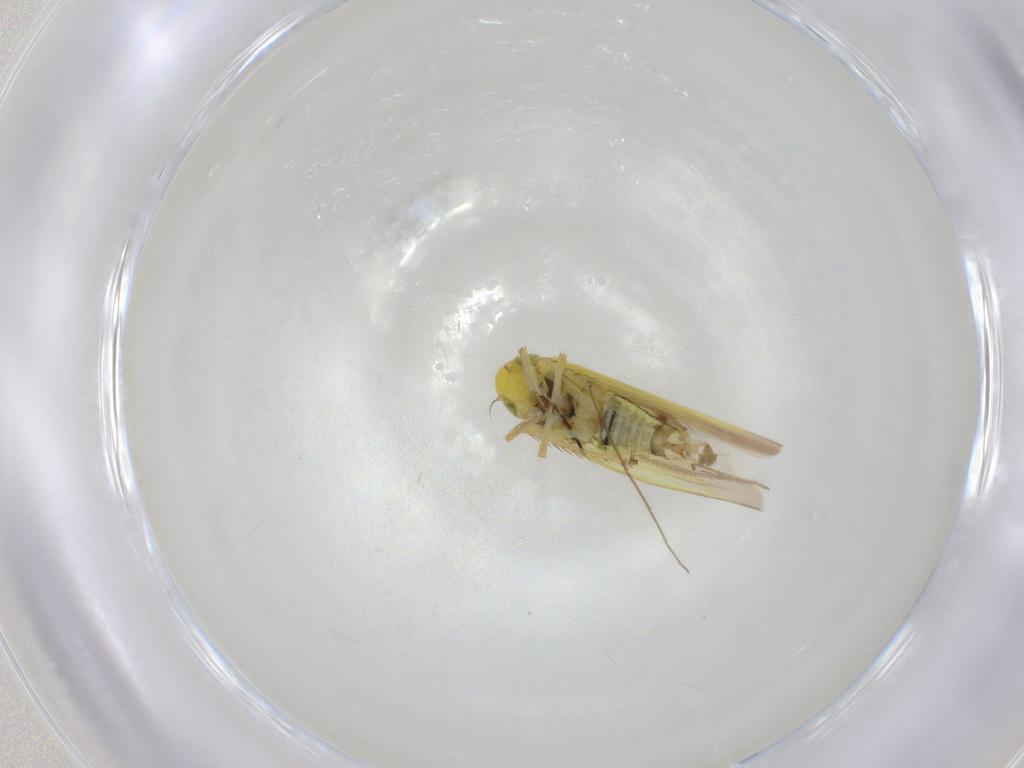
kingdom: Animalia
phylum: Arthropoda
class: Insecta
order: Hemiptera
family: Cicadellidae
